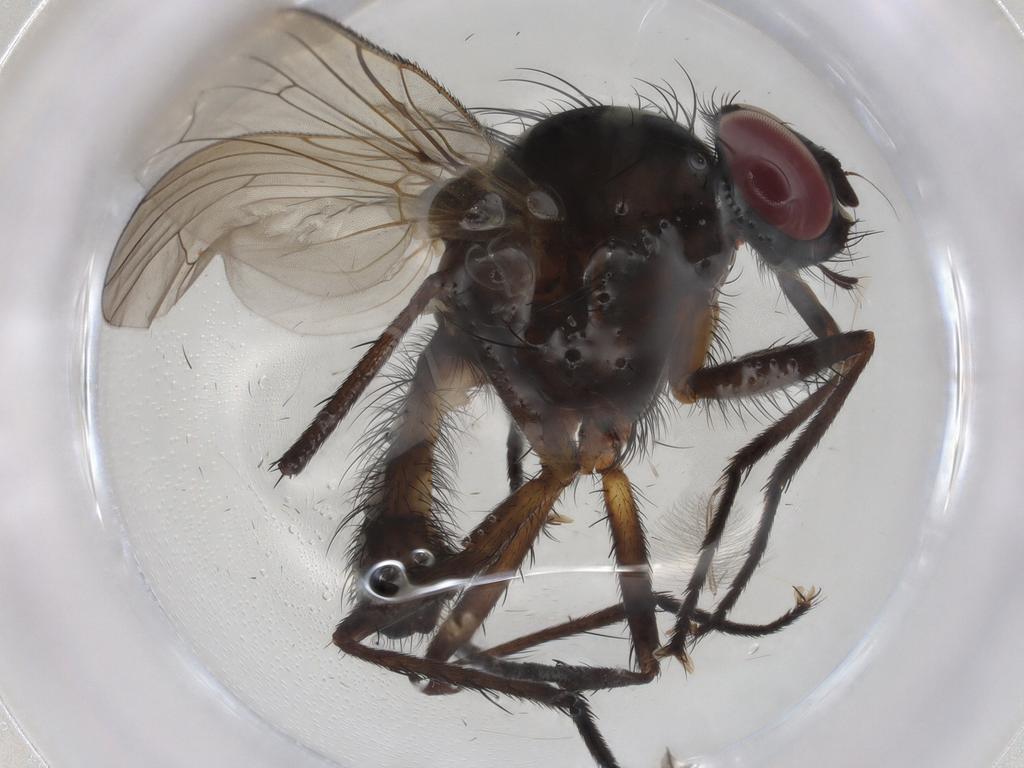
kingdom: Animalia
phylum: Arthropoda
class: Insecta
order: Diptera
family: Anthomyiidae
